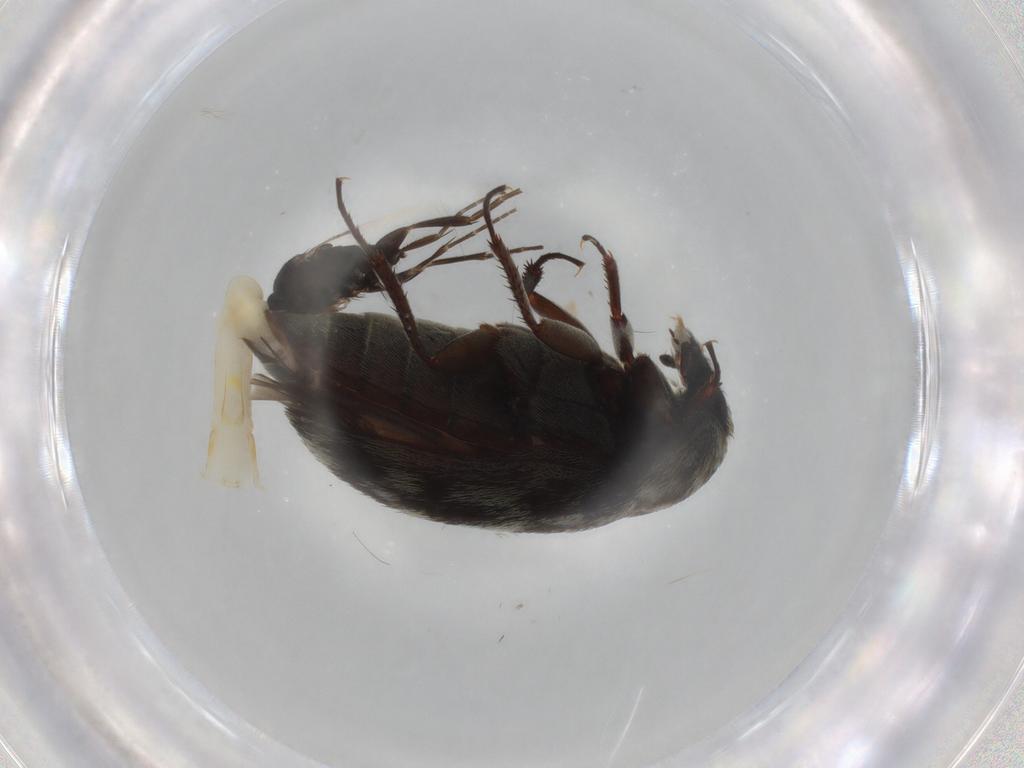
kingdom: Animalia
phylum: Arthropoda
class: Insecta
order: Coleoptera
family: Dermestidae
